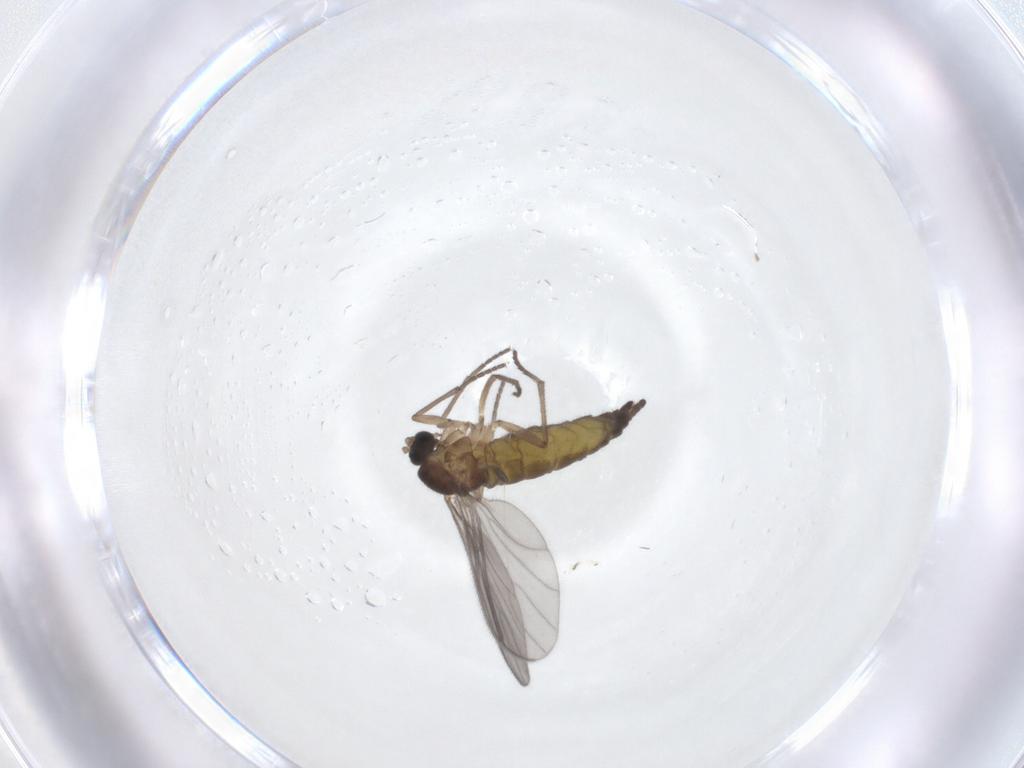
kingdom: Animalia
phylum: Arthropoda
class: Insecta
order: Diptera
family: Sciaridae
